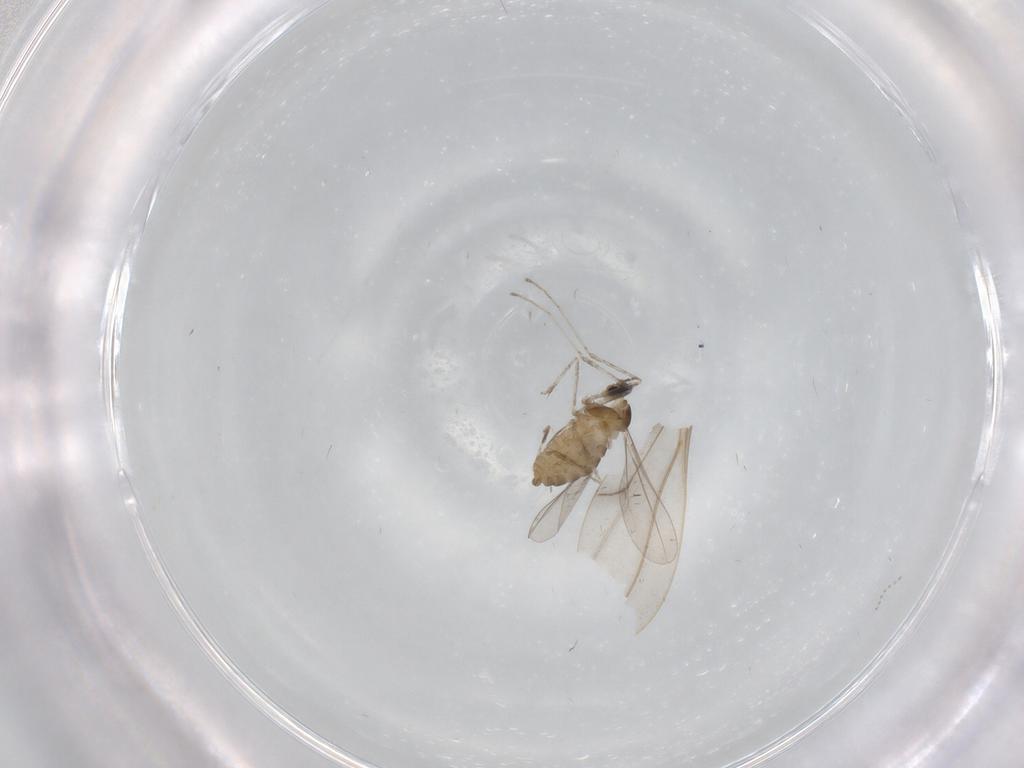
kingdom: Animalia
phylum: Arthropoda
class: Insecta
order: Diptera
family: Cecidomyiidae
